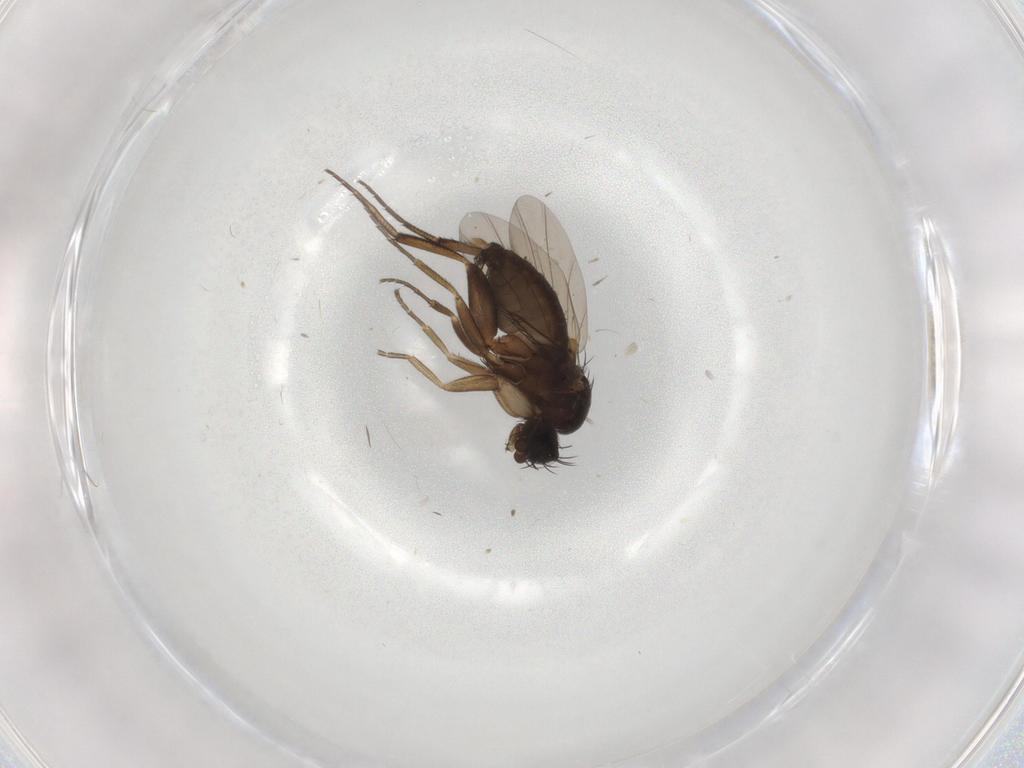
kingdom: Animalia
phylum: Arthropoda
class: Insecta
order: Diptera
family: Phoridae
